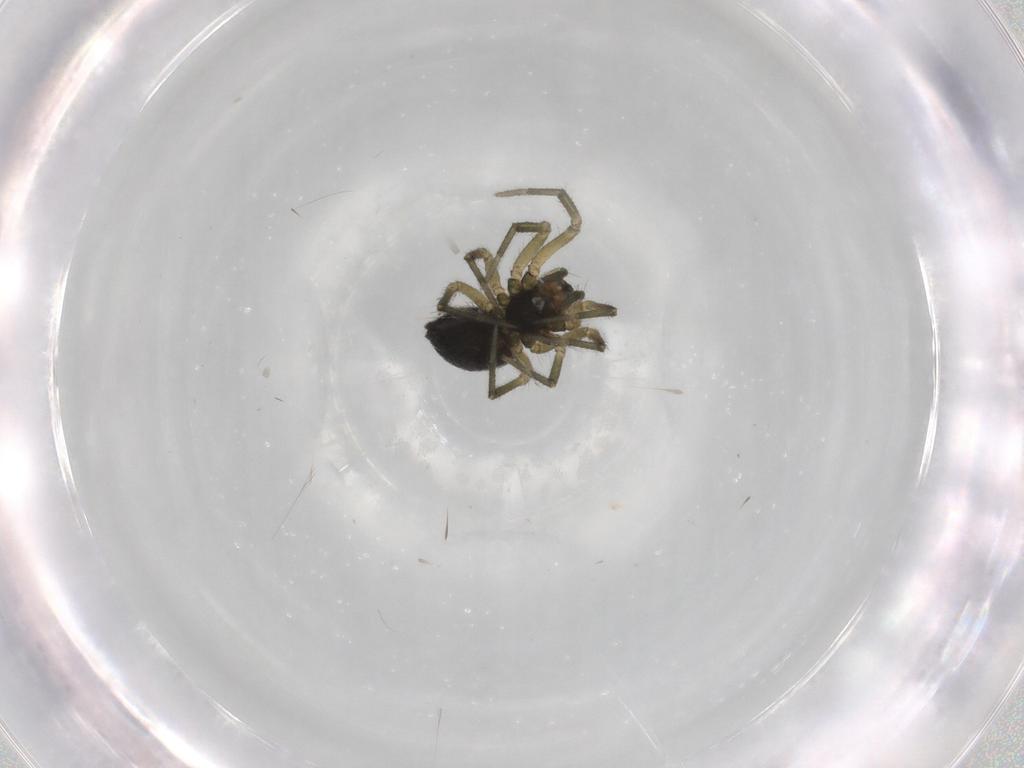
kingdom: Animalia
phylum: Arthropoda
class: Arachnida
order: Araneae
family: Linyphiidae
